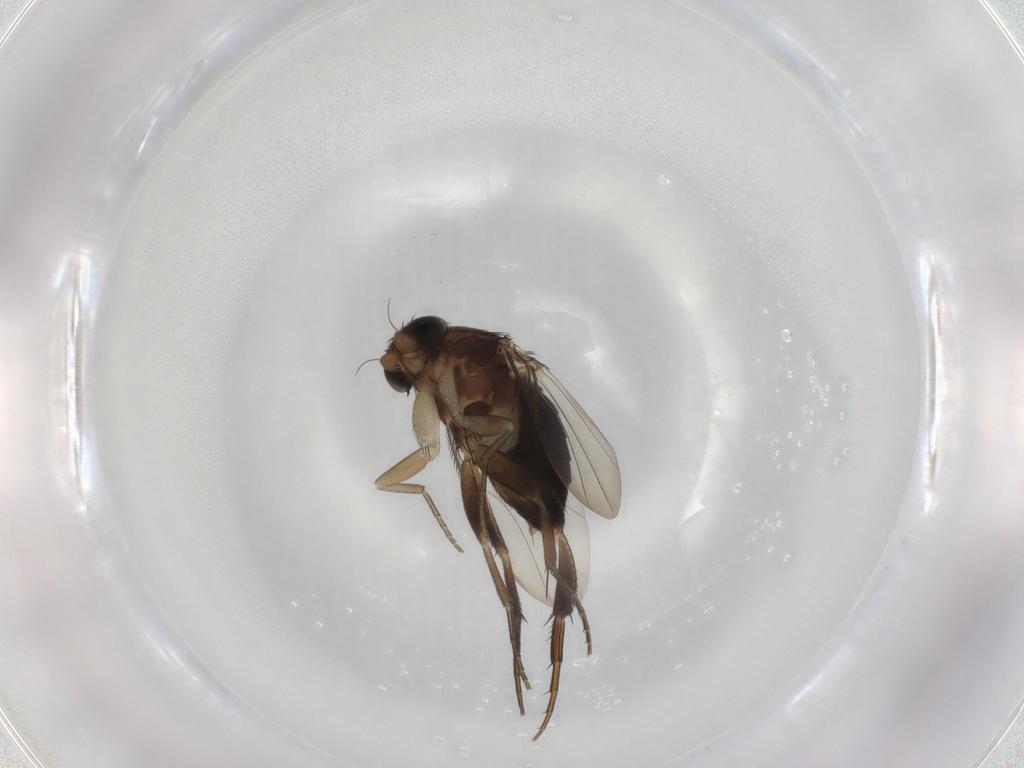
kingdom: Animalia
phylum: Arthropoda
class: Insecta
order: Diptera
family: Phoridae
